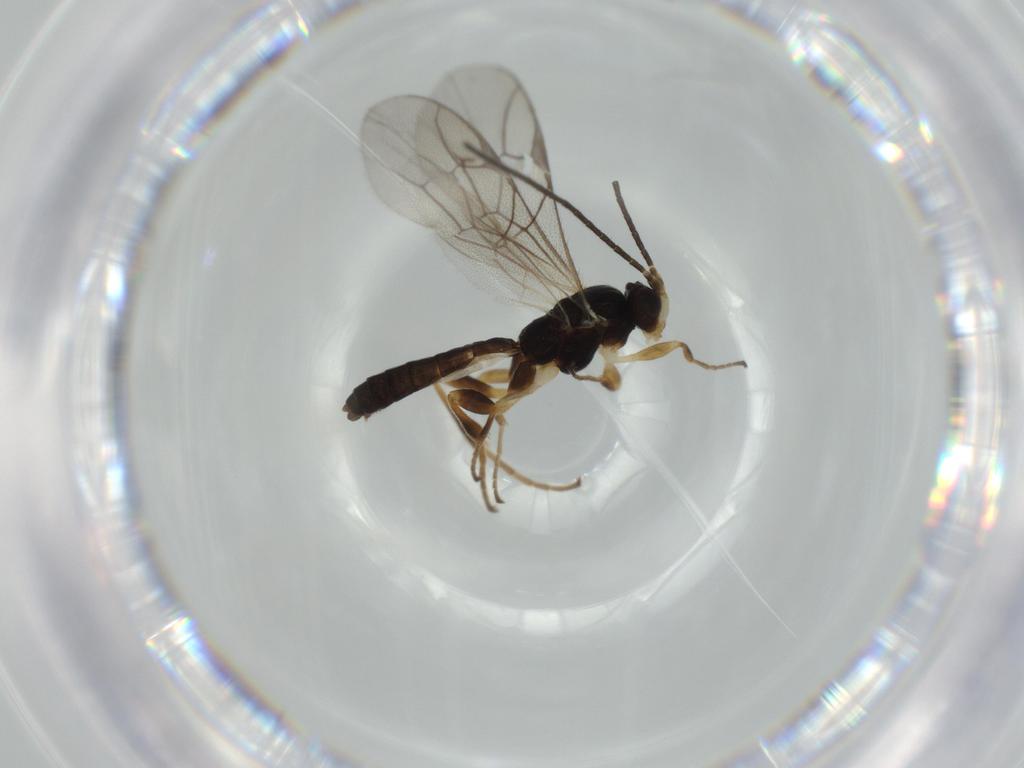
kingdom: Animalia
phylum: Arthropoda
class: Insecta
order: Hymenoptera
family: Ichneumonidae
